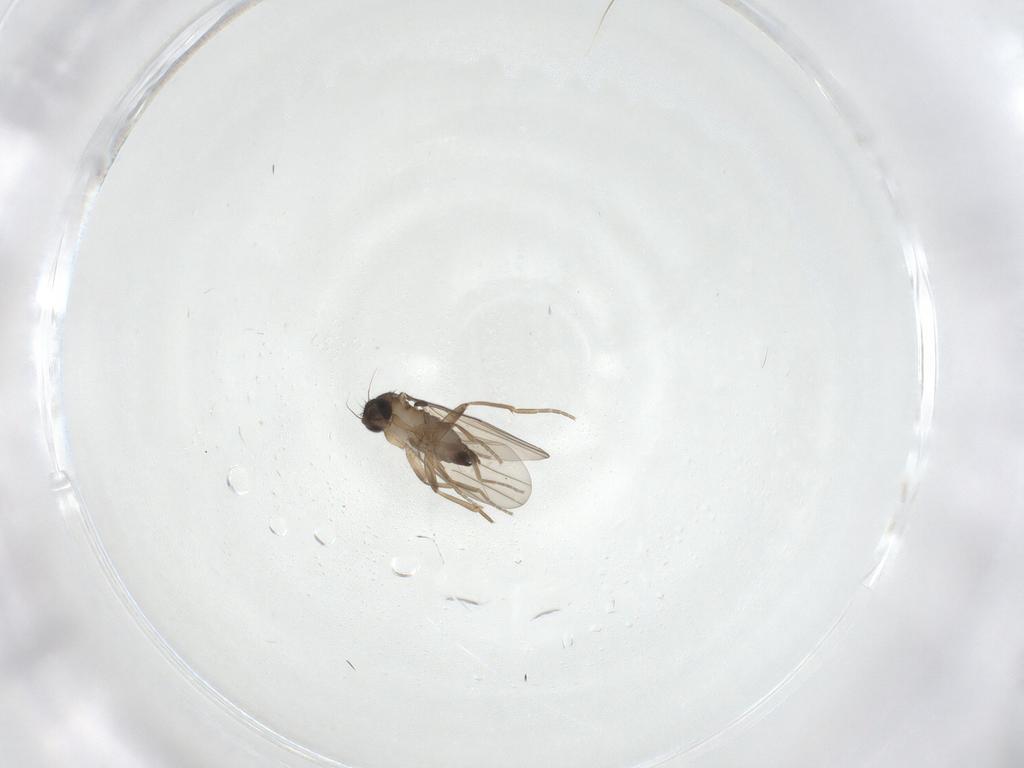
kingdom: Animalia
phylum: Arthropoda
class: Insecta
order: Diptera
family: Phoridae
